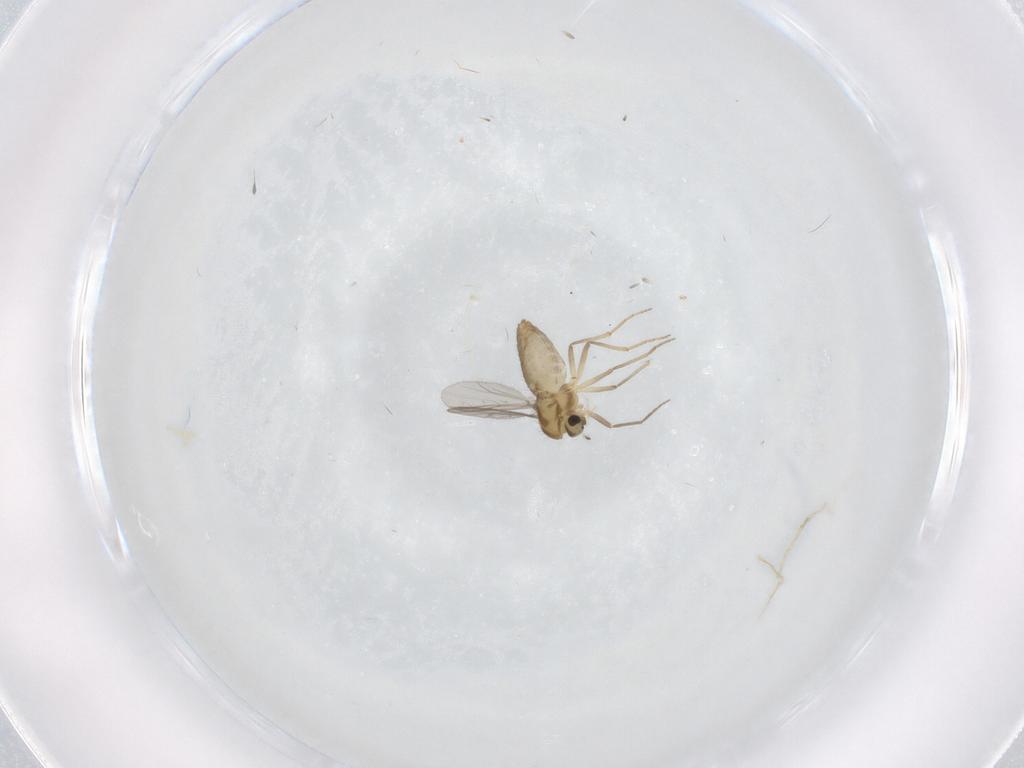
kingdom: Animalia
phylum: Arthropoda
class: Insecta
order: Diptera
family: Chironomidae
